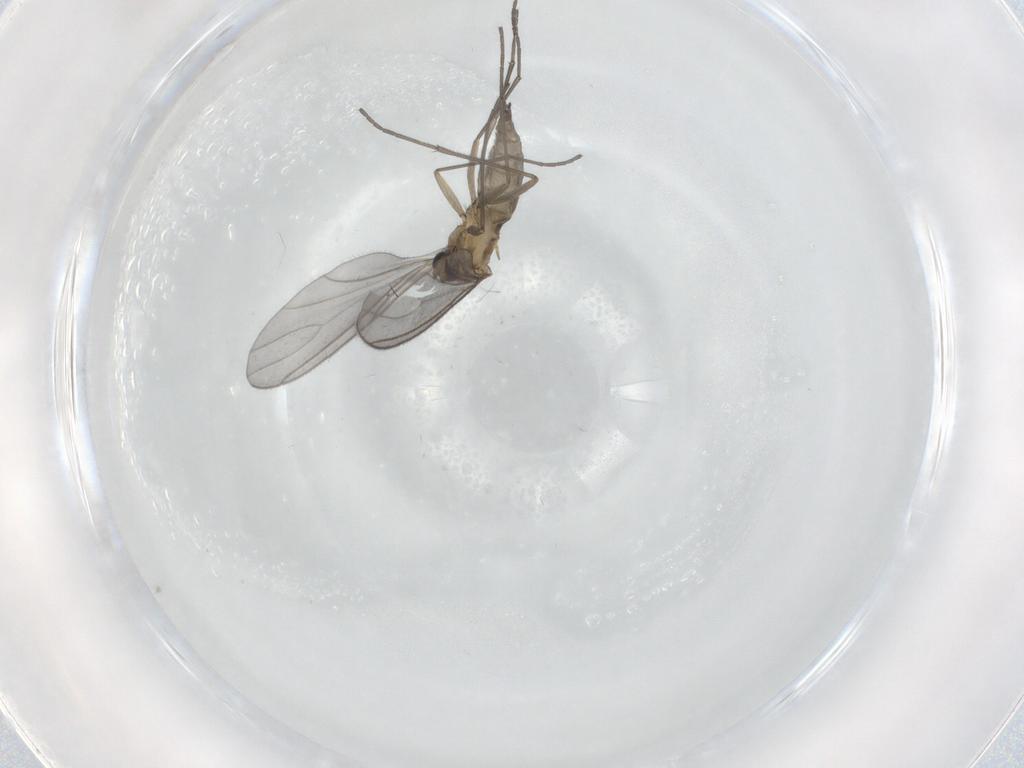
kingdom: Animalia
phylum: Arthropoda
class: Insecta
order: Diptera
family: Sciaridae
